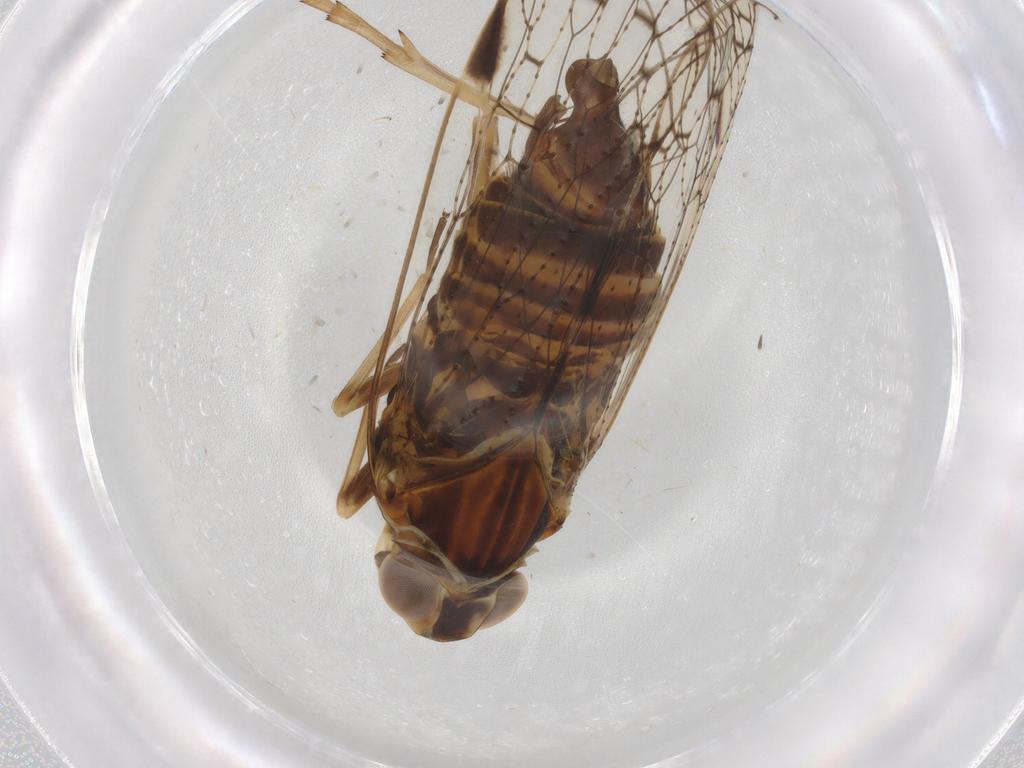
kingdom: Animalia
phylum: Arthropoda
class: Insecta
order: Hemiptera
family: Cixiidae
